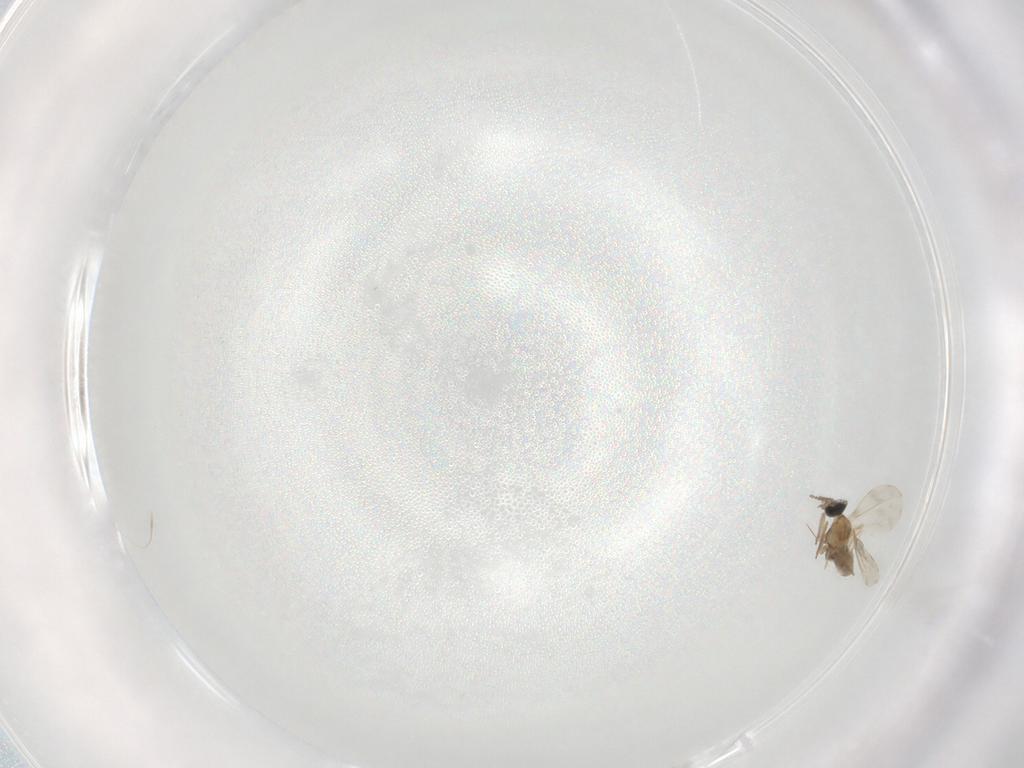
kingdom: Animalia
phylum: Arthropoda
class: Insecta
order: Diptera
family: Cecidomyiidae
